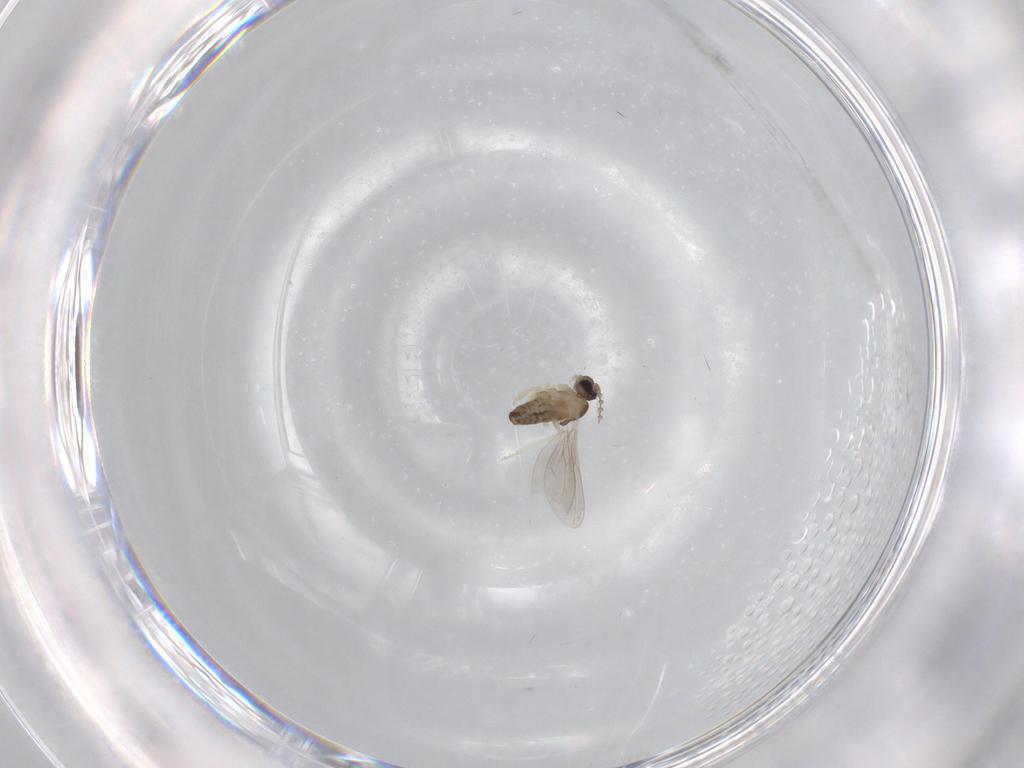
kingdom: Animalia
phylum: Arthropoda
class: Insecta
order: Diptera
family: Cecidomyiidae
